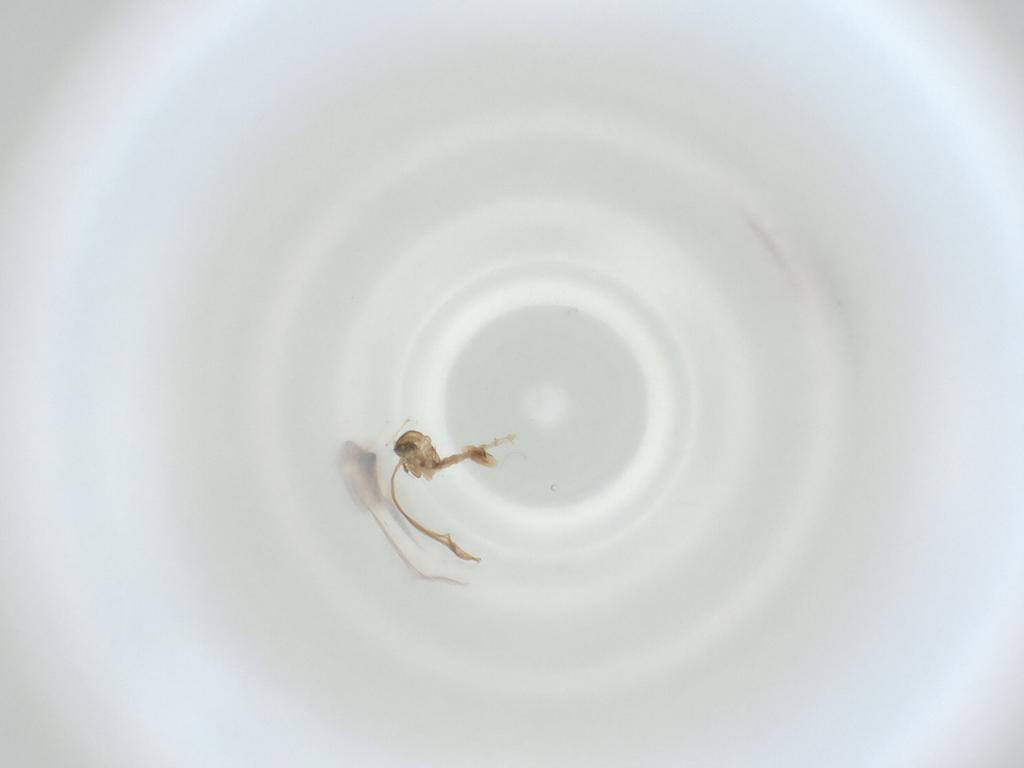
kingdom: Animalia
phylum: Arthropoda
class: Insecta
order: Diptera
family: Cecidomyiidae
